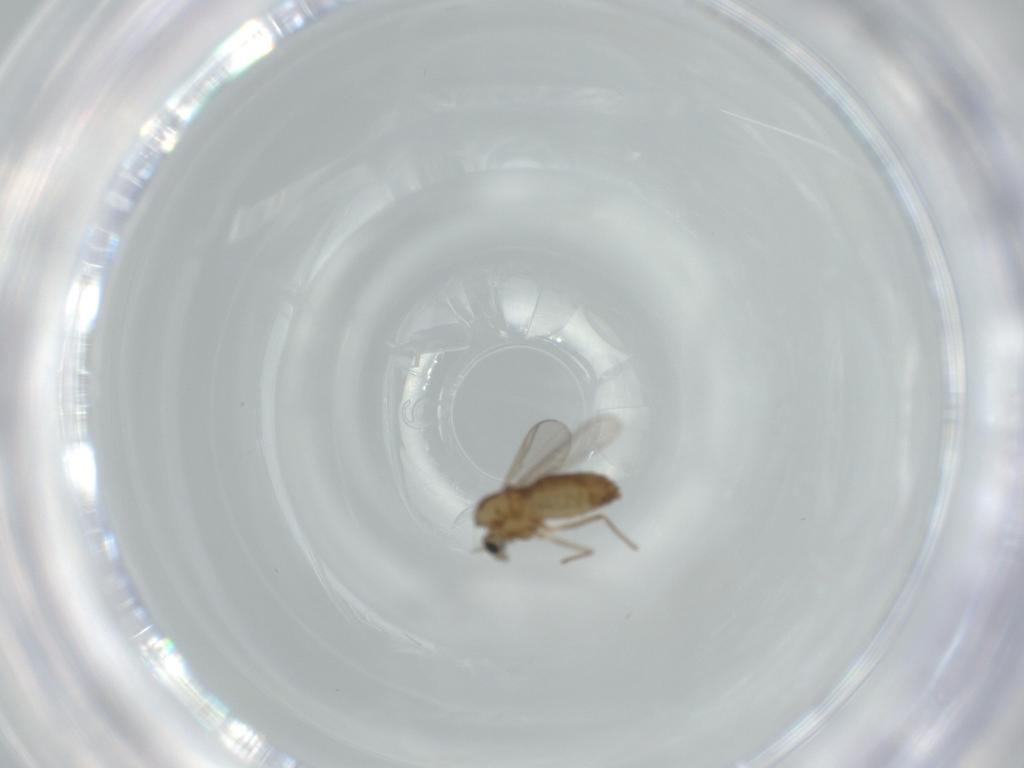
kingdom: Animalia
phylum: Arthropoda
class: Insecta
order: Diptera
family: Chironomidae
